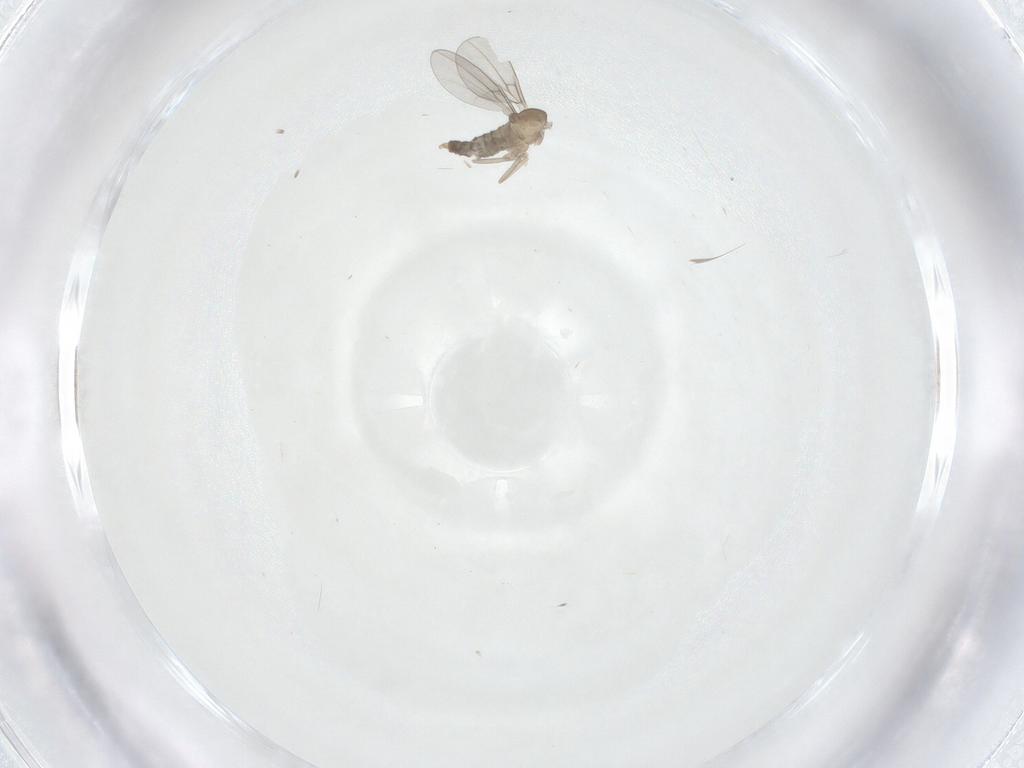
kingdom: Animalia
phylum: Arthropoda
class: Insecta
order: Diptera
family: Cecidomyiidae
